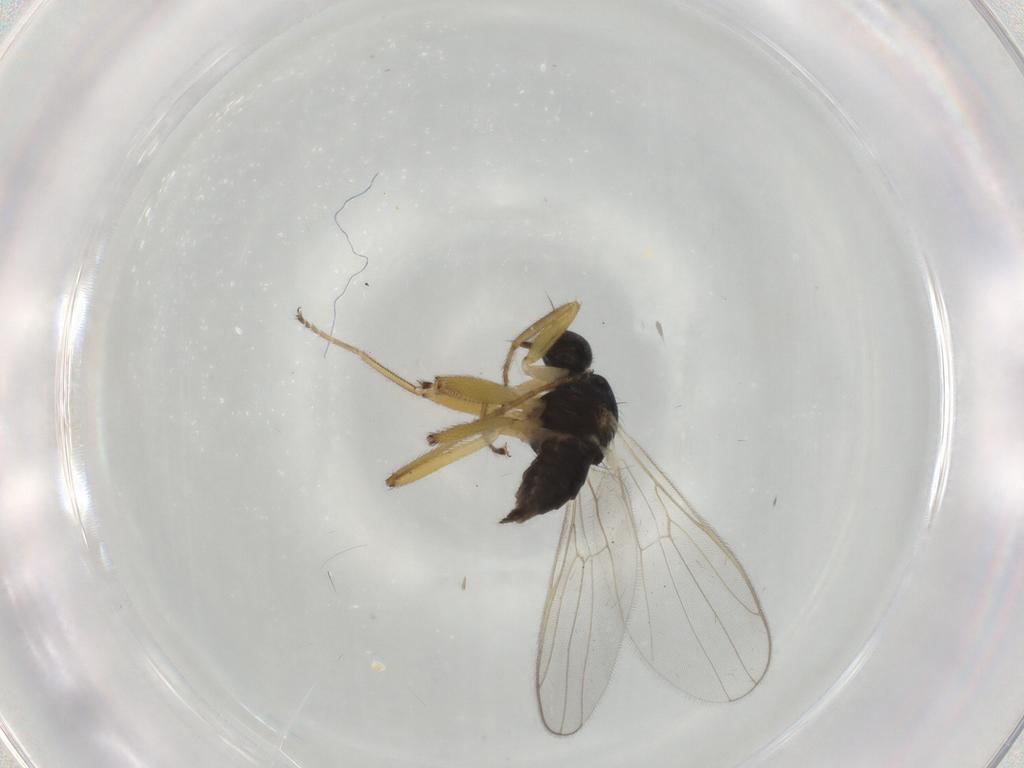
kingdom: Animalia
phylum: Arthropoda
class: Insecta
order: Diptera
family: Hybotidae
